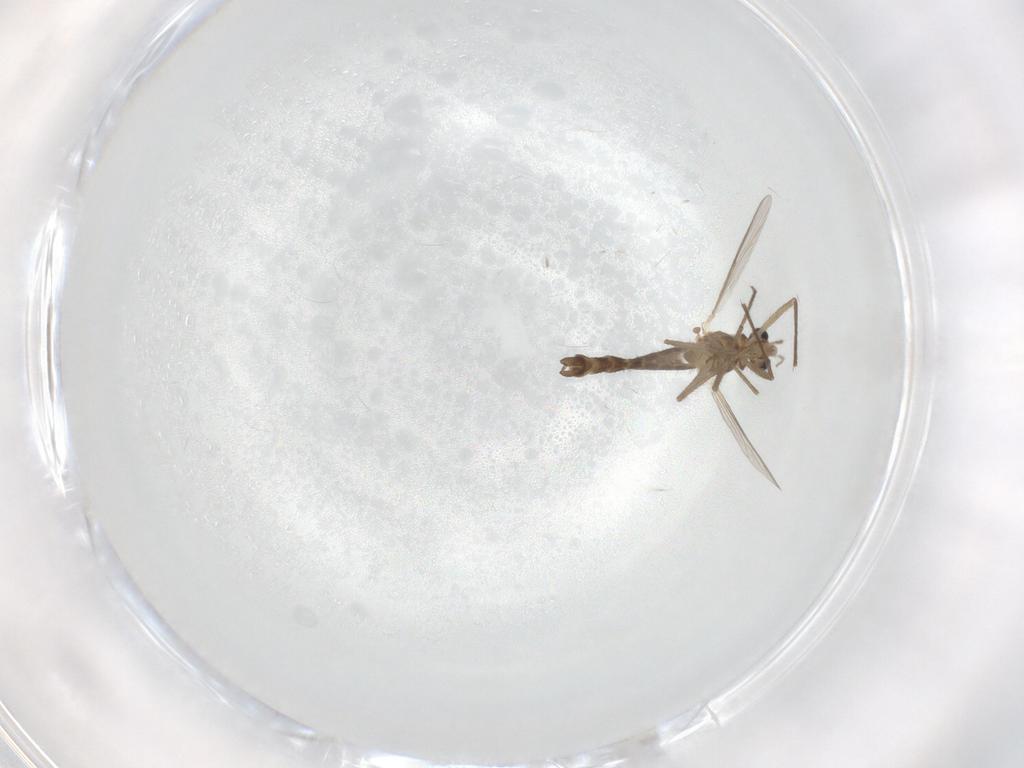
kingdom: Animalia
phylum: Arthropoda
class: Insecta
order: Diptera
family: Chironomidae
